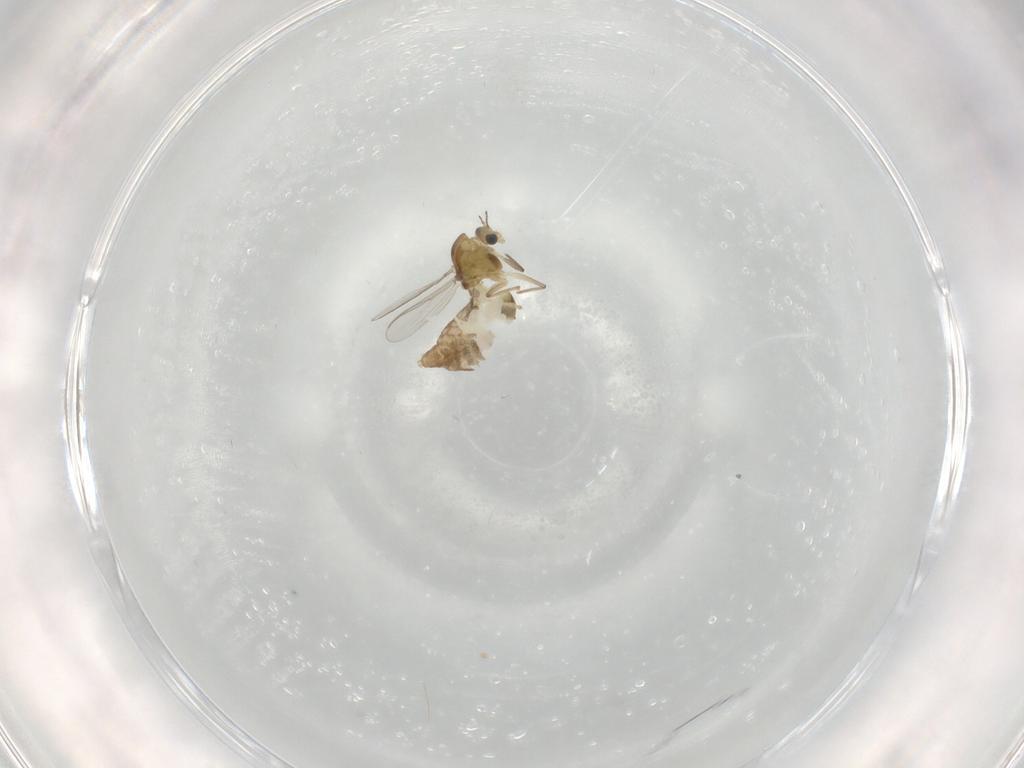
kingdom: Animalia
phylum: Arthropoda
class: Insecta
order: Diptera
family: Chironomidae
